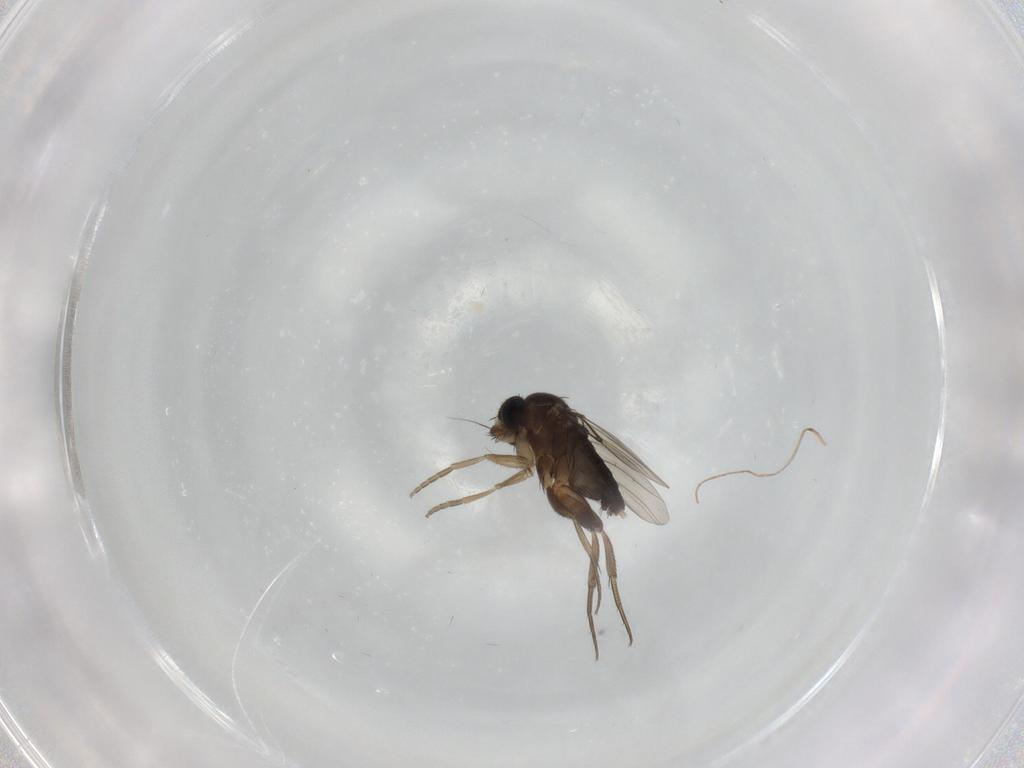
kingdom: Animalia
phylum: Arthropoda
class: Insecta
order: Diptera
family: Phoridae
